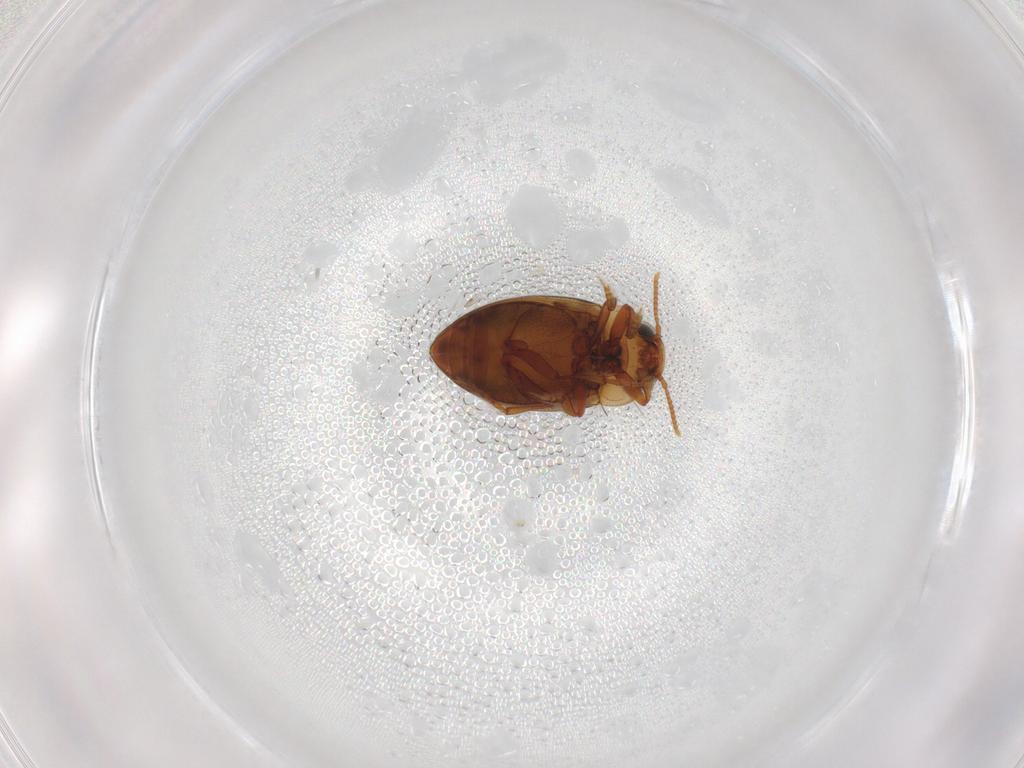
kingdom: Animalia
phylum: Arthropoda
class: Insecta
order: Coleoptera
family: Dytiscidae
